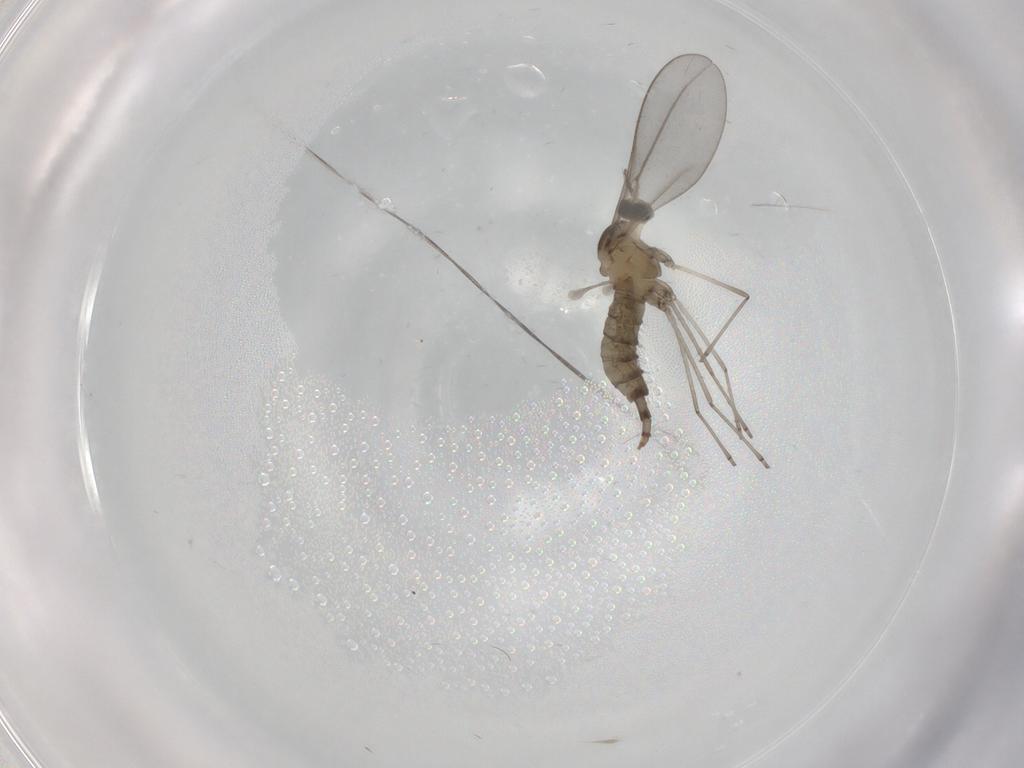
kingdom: Animalia
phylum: Arthropoda
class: Insecta
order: Diptera
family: Cecidomyiidae
